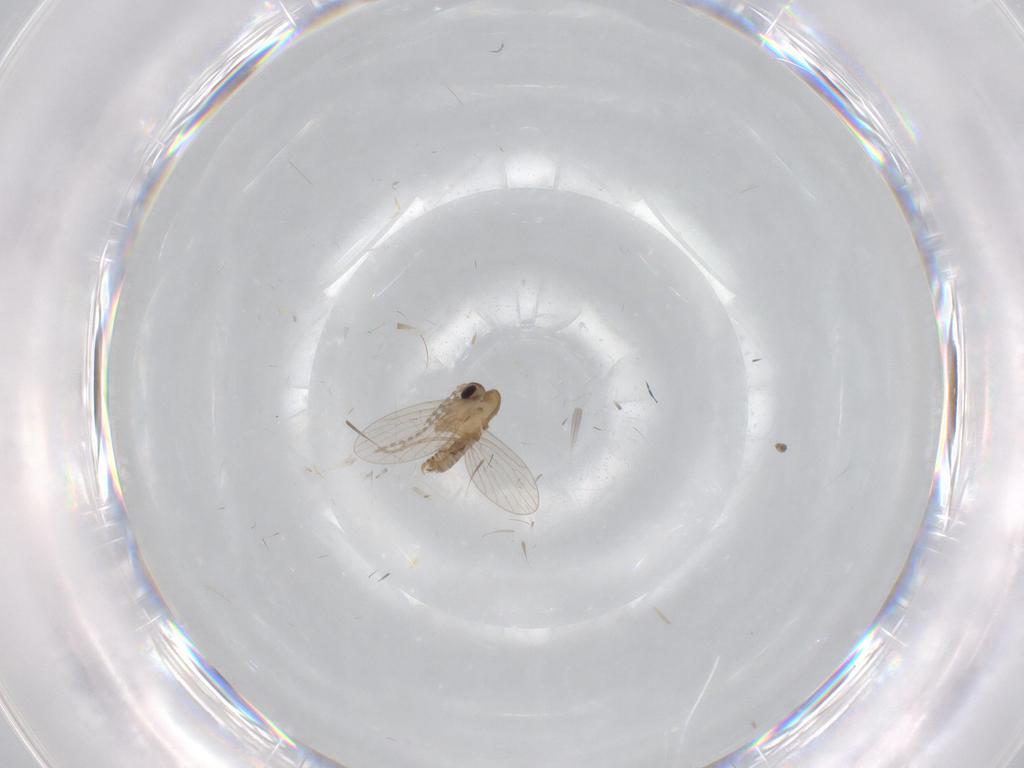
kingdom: Animalia
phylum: Arthropoda
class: Insecta
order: Diptera
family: Psychodidae
